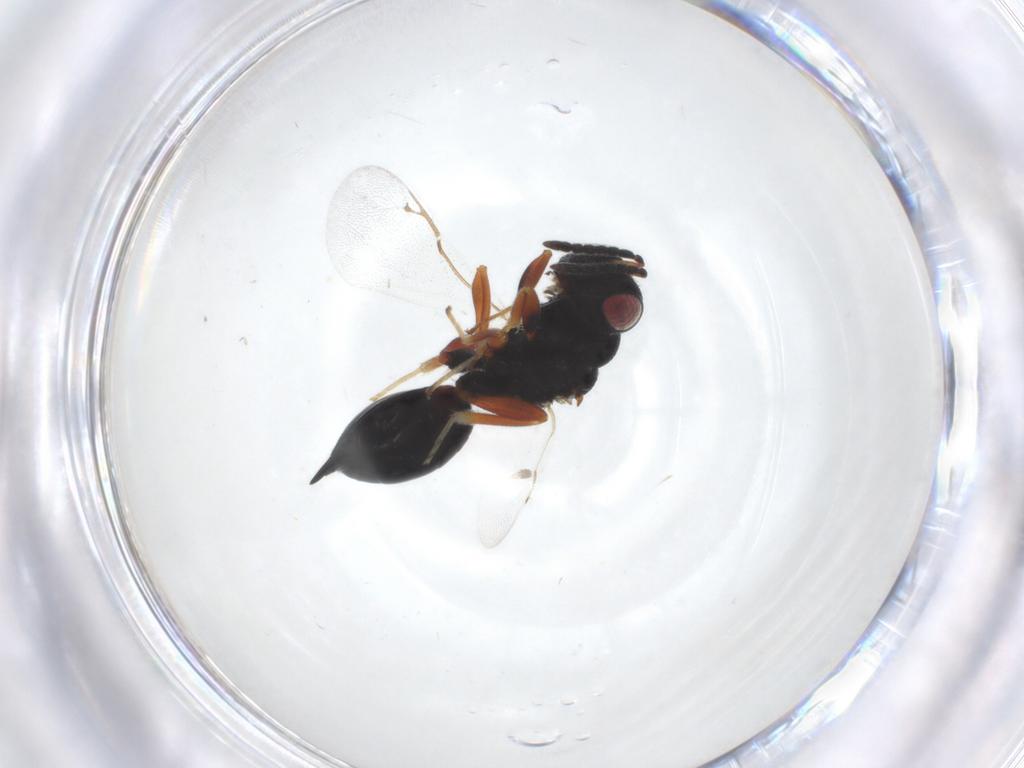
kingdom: Animalia
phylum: Arthropoda
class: Insecta
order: Hymenoptera
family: Eurytomidae
